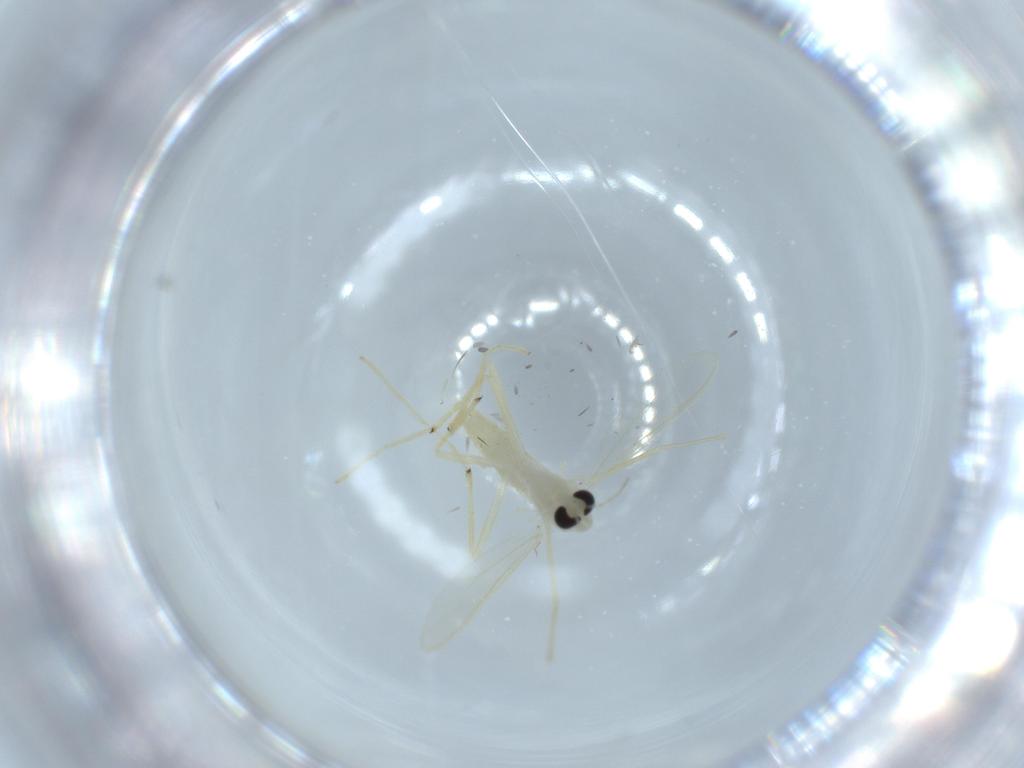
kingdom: Animalia
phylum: Arthropoda
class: Insecta
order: Diptera
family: Chironomidae
